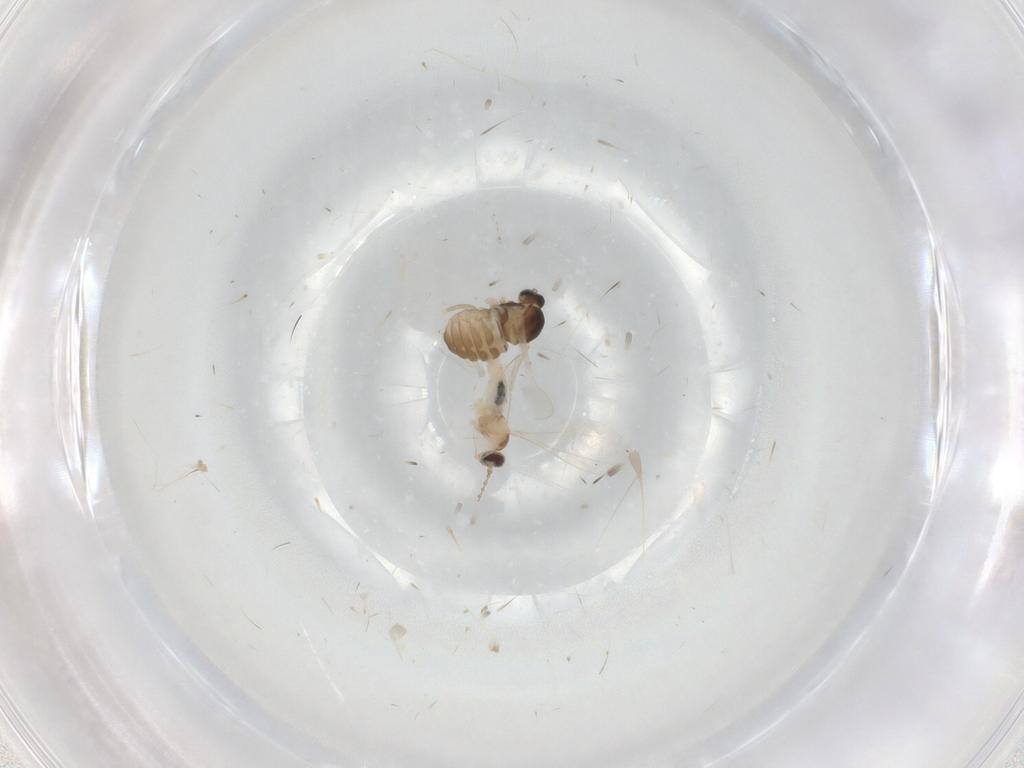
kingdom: Animalia
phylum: Arthropoda
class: Insecta
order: Diptera
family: Cecidomyiidae
